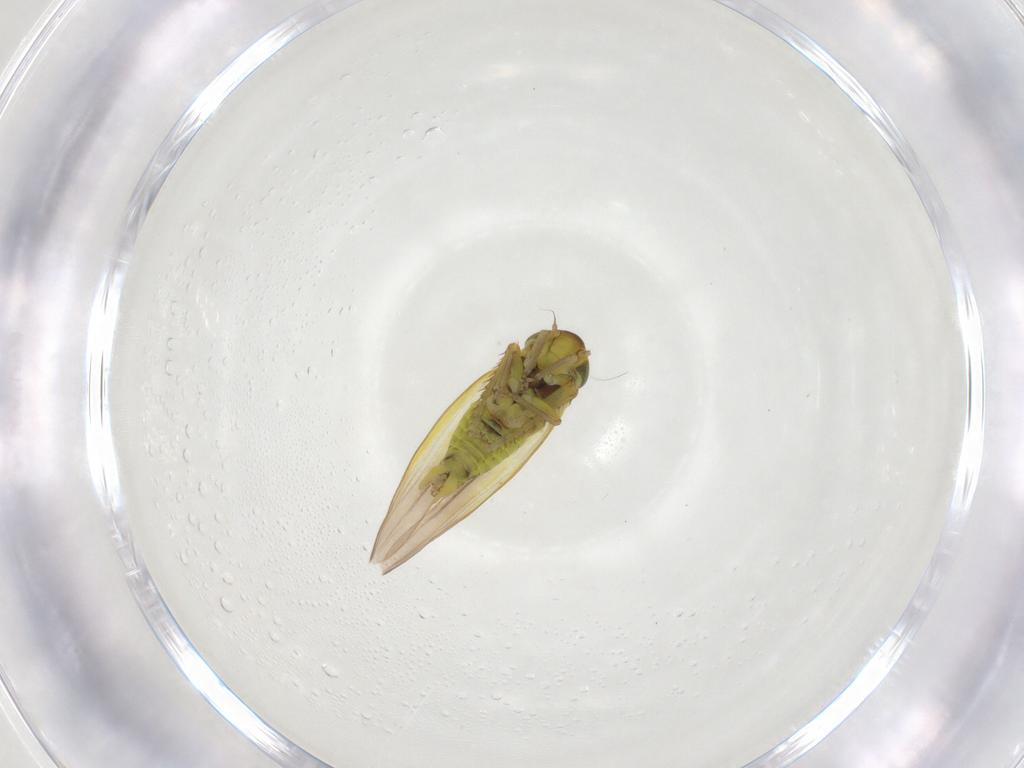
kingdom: Animalia
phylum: Arthropoda
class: Insecta
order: Hemiptera
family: Cicadellidae
